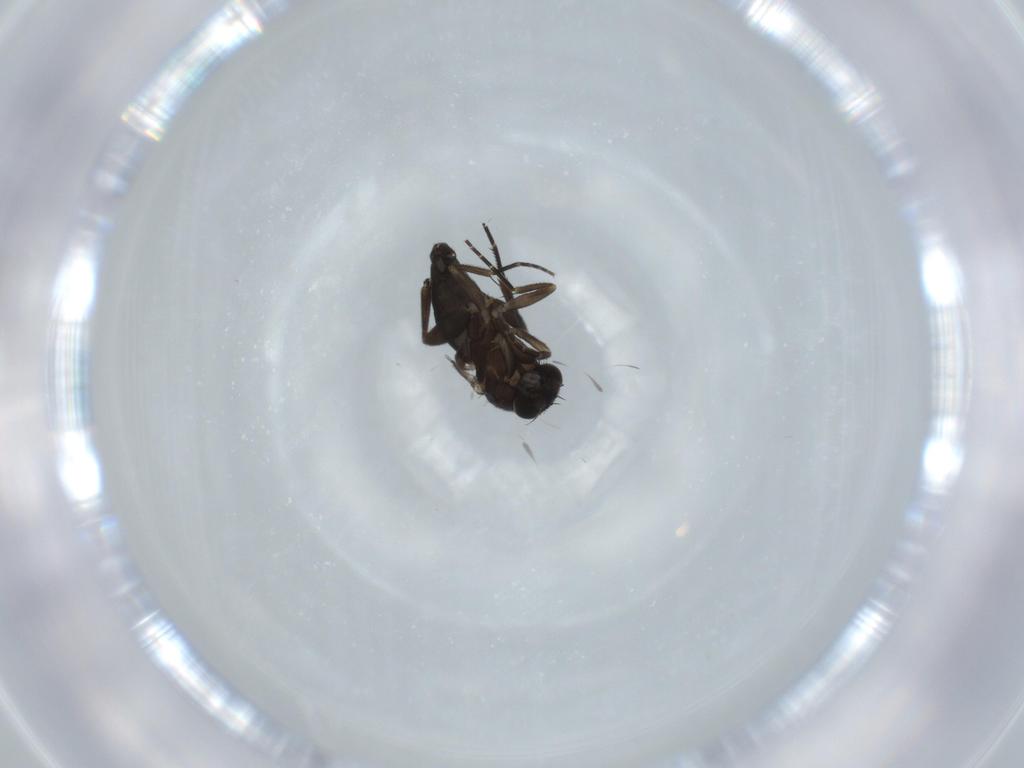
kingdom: Animalia
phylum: Arthropoda
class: Insecta
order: Diptera
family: Phoridae
